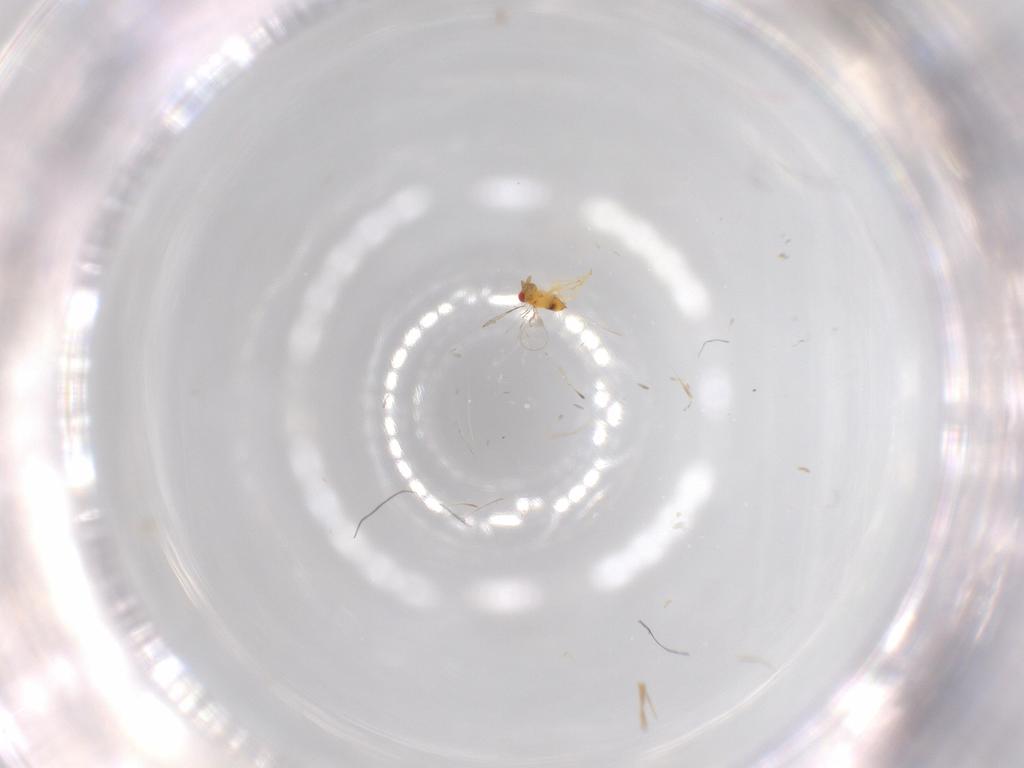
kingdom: Animalia
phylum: Arthropoda
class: Insecta
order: Hymenoptera
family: Trichogrammatidae
